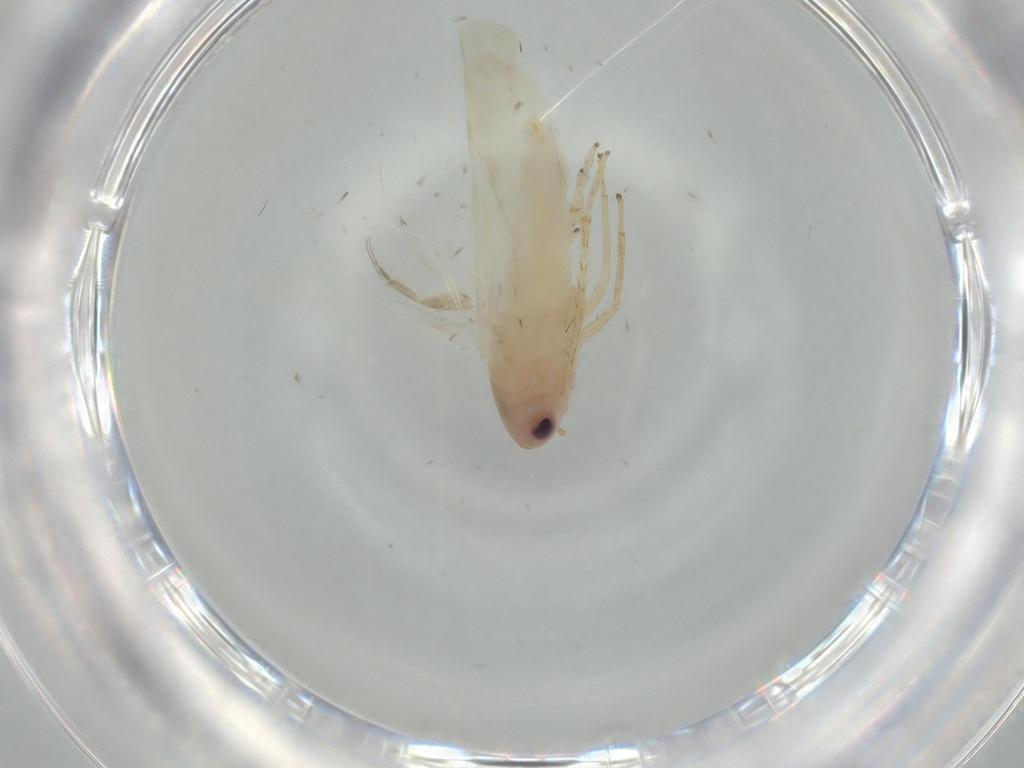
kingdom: Animalia
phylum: Arthropoda
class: Insecta
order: Hemiptera
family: Cicadellidae
